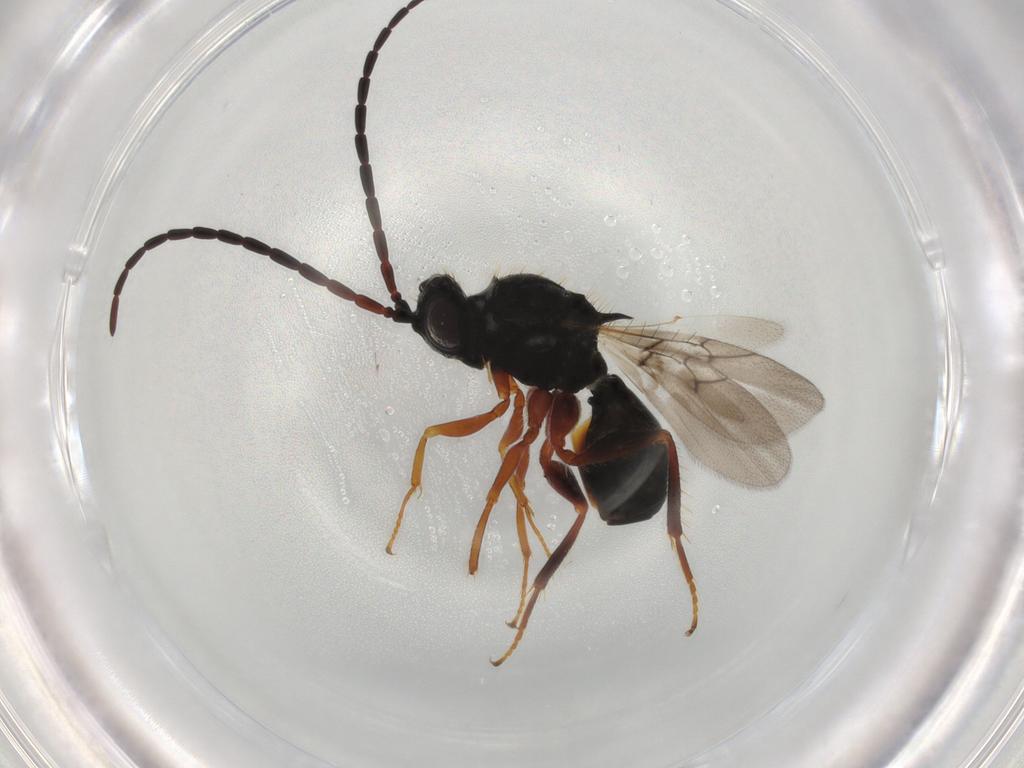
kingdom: Animalia
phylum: Arthropoda
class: Insecta
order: Hymenoptera
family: Figitidae
